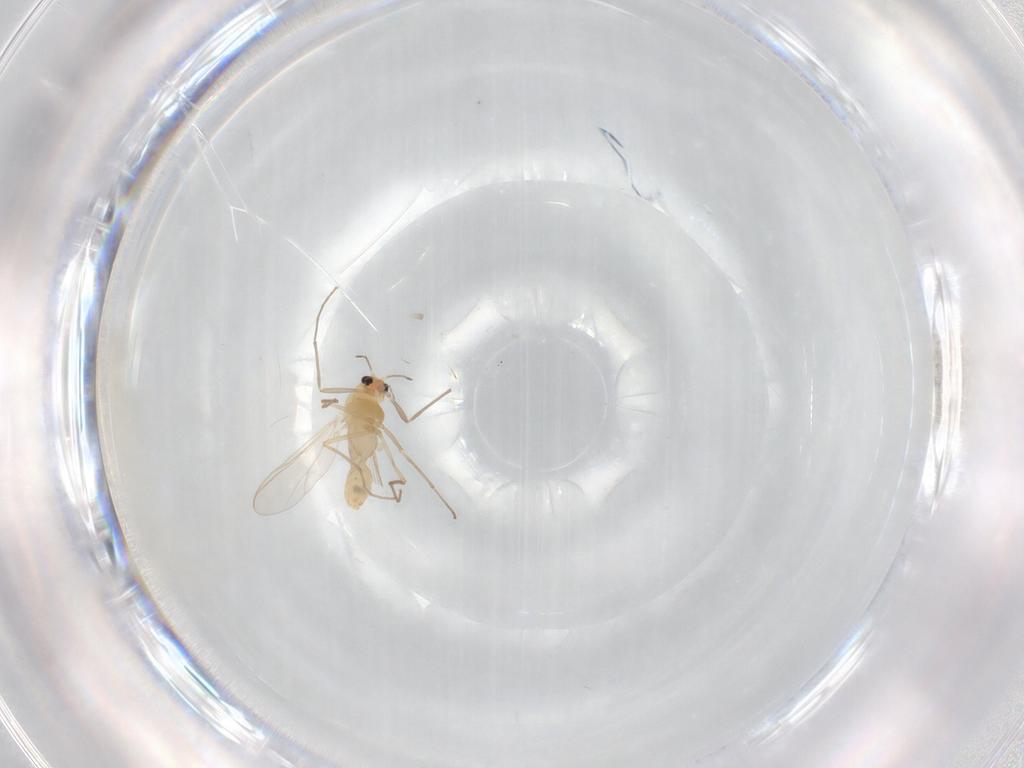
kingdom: Animalia
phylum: Arthropoda
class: Insecta
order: Diptera
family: Chironomidae
